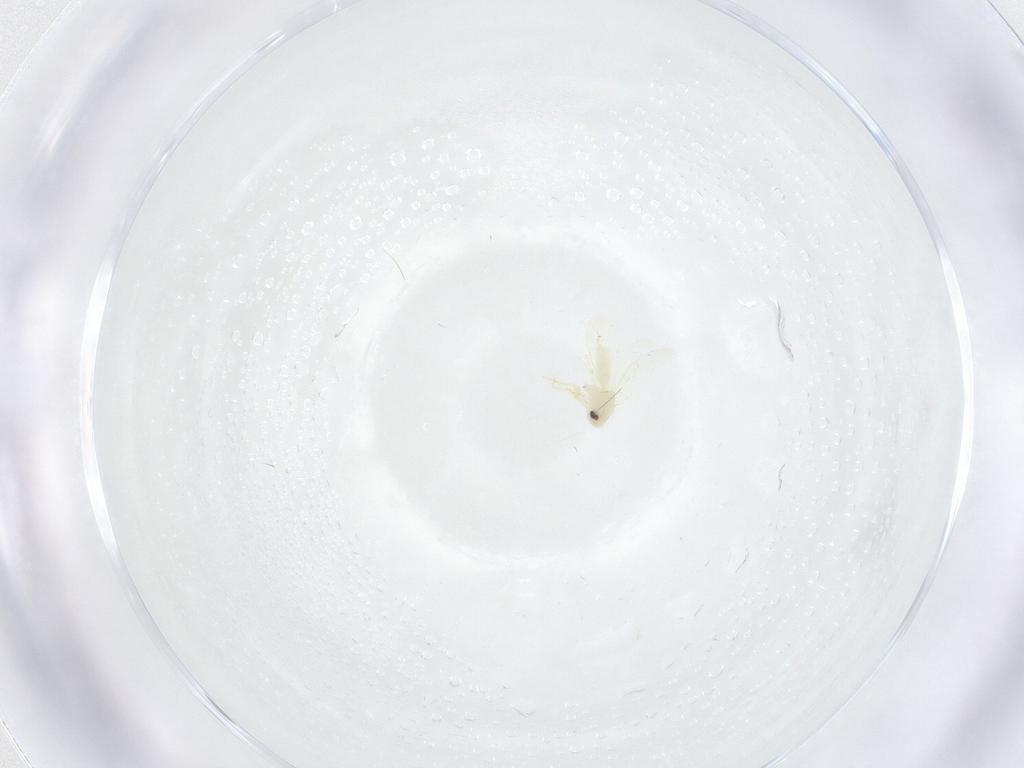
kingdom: Animalia
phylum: Arthropoda
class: Insecta
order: Hemiptera
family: Aleyrodidae
